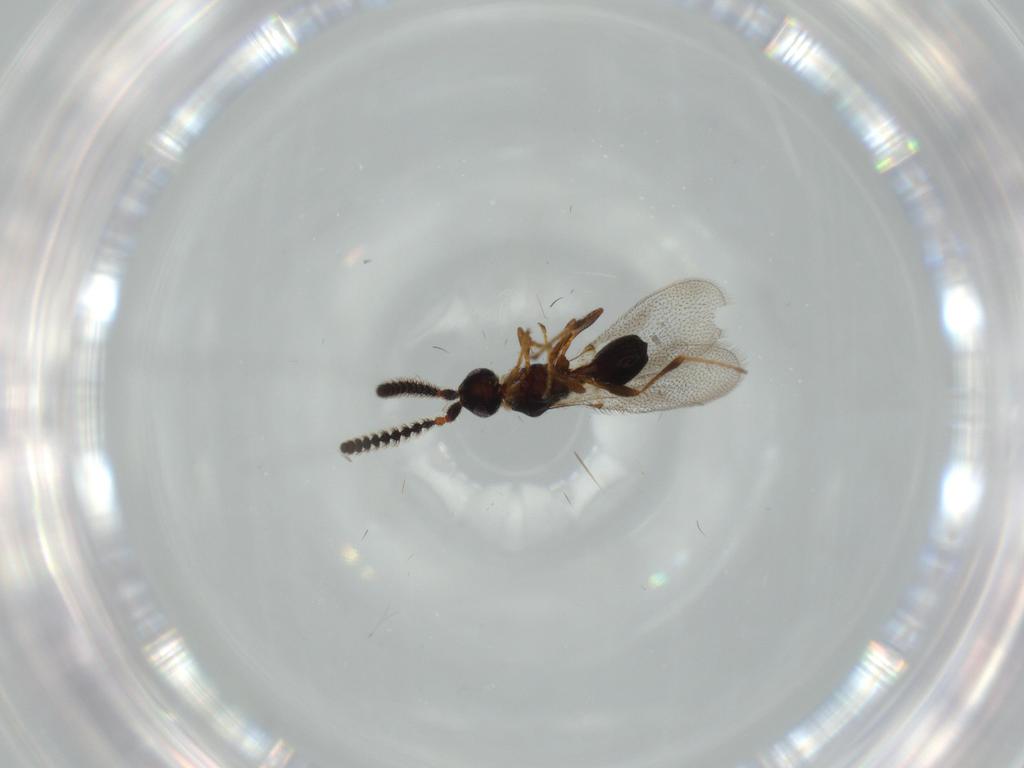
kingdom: Animalia
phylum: Arthropoda
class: Insecta
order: Hymenoptera
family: Diapriidae
